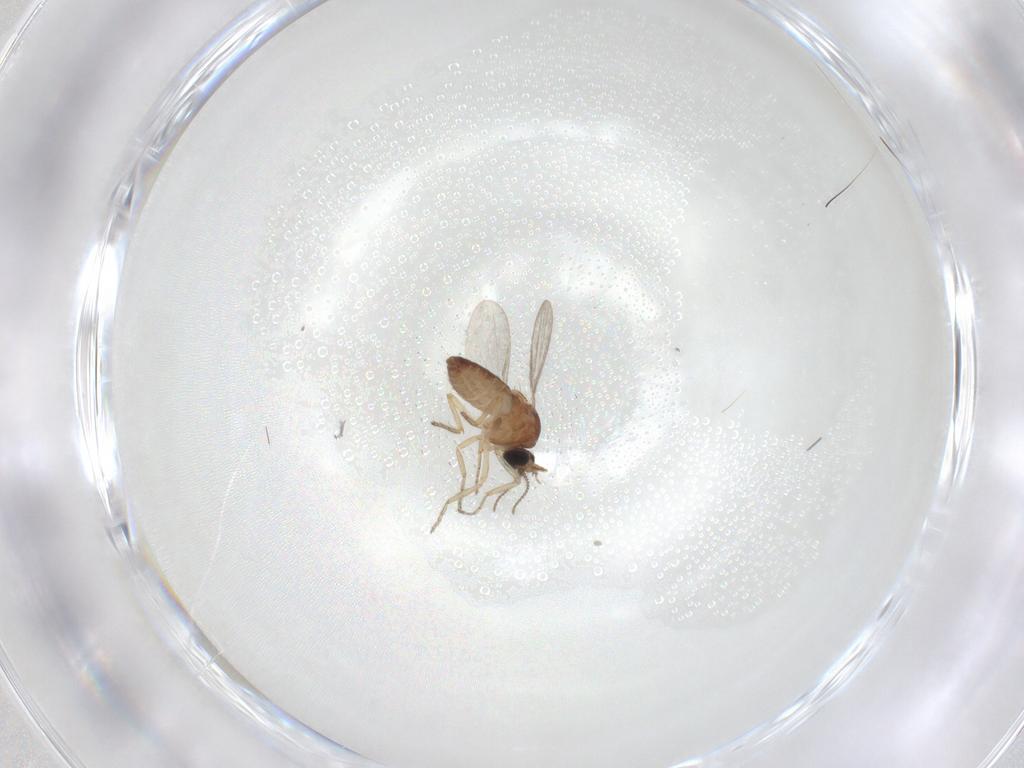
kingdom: Animalia
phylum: Arthropoda
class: Insecta
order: Diptera
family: Ceratopogonidae
